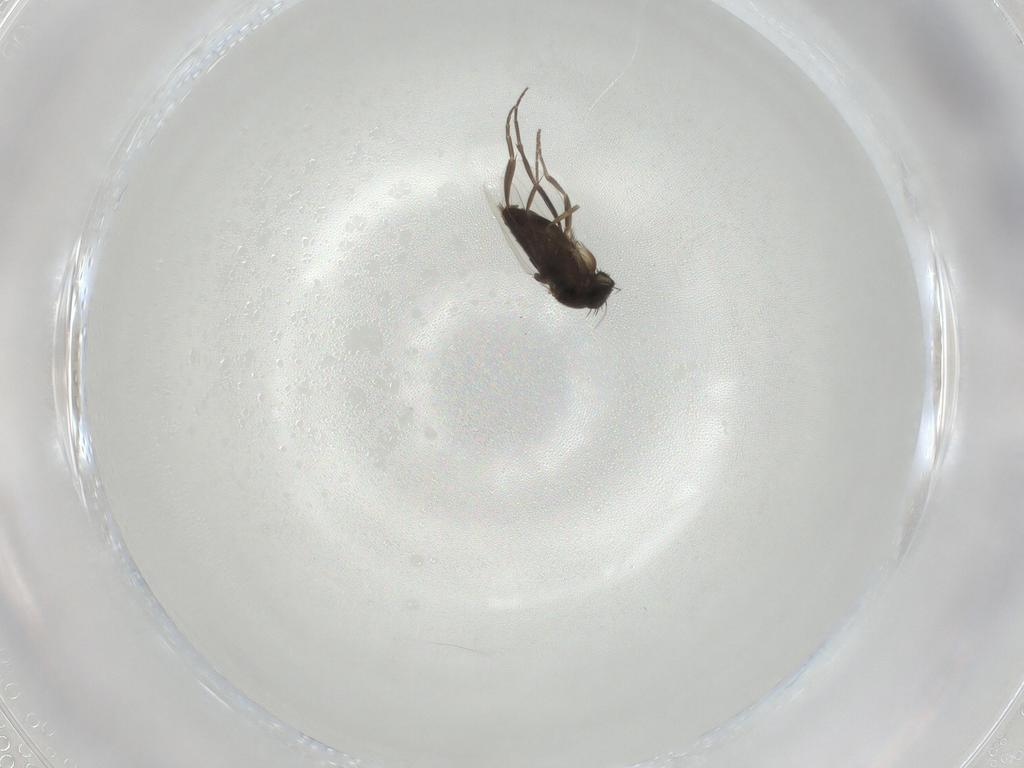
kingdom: Animalia
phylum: Arthropoda
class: Insecta
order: Diptera
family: Phoridae
